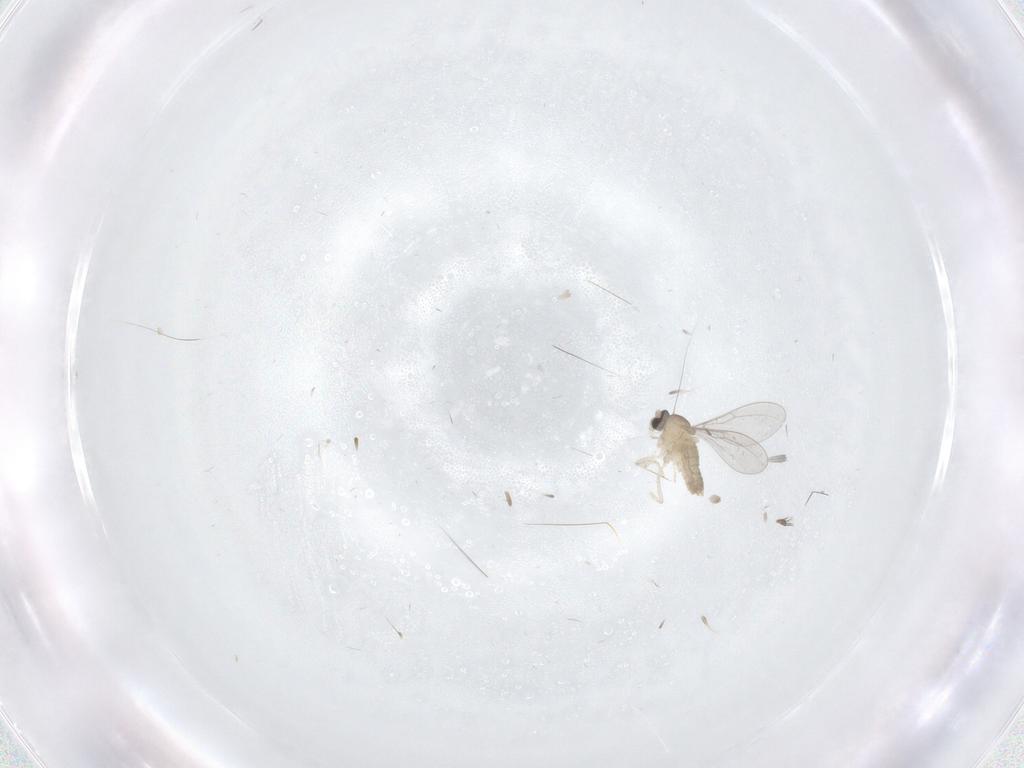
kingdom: Animalia
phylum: Arthropoda
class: Insecta
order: Diptera
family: Cecidomyiidae
